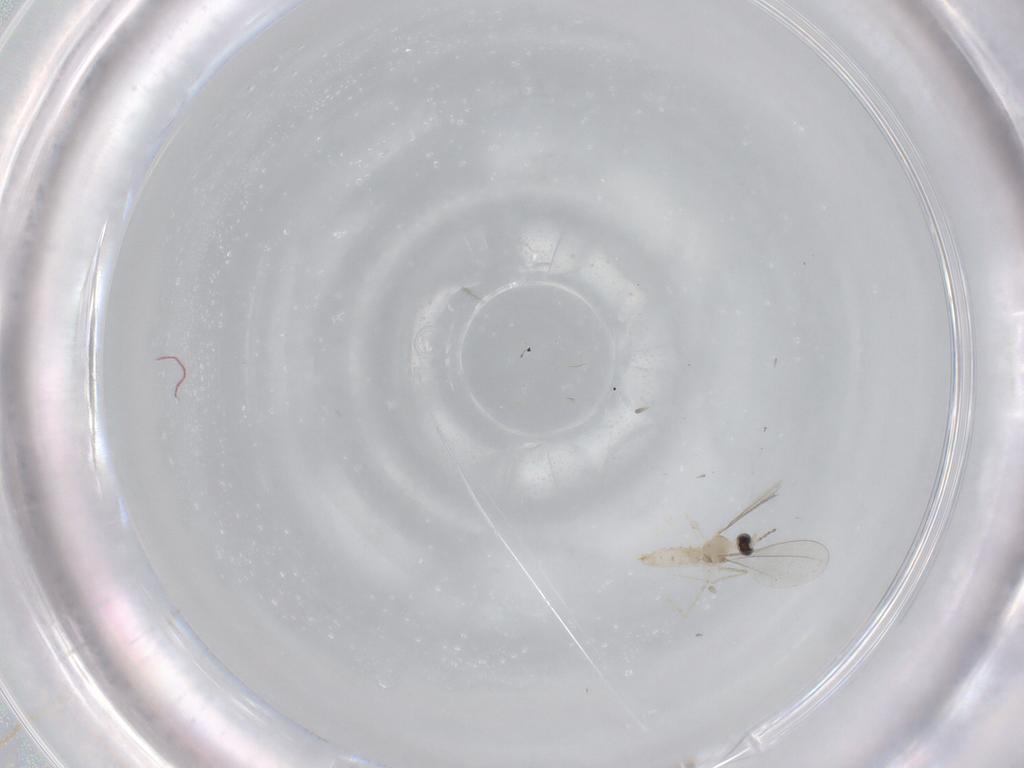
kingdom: Animalia
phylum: Arthropoda
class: Insecta
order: Diptera
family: Cecidomyiidae
